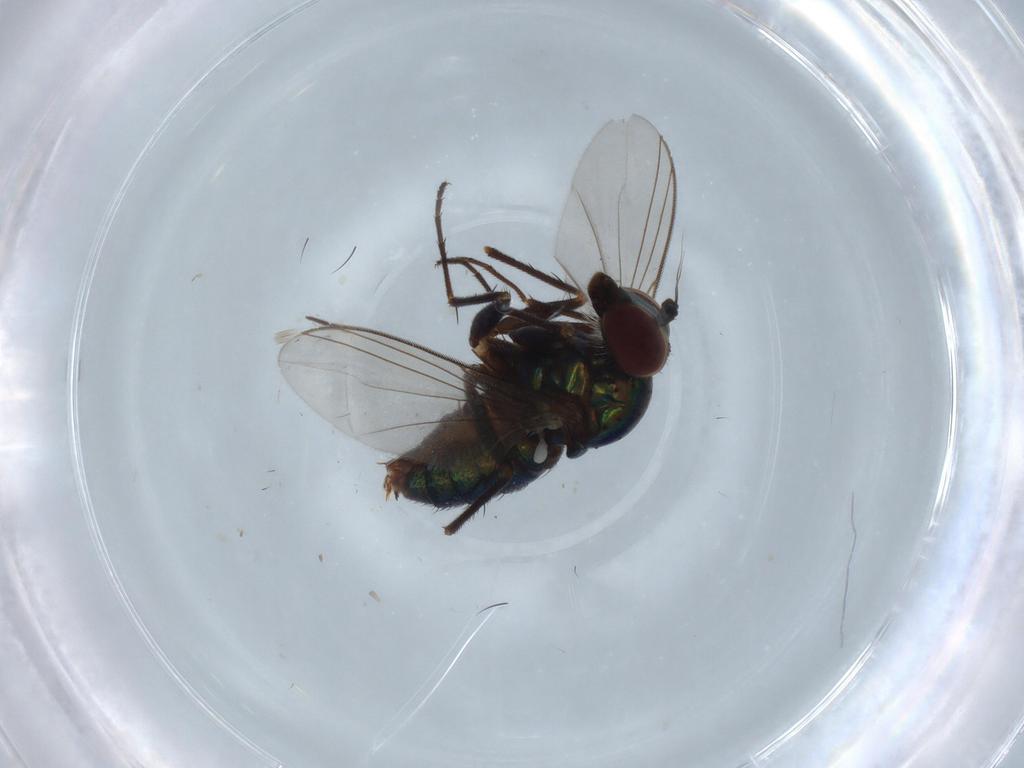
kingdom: Animalia
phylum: Arthropoda
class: Insecta
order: Diptera
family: Dolichopodidae
